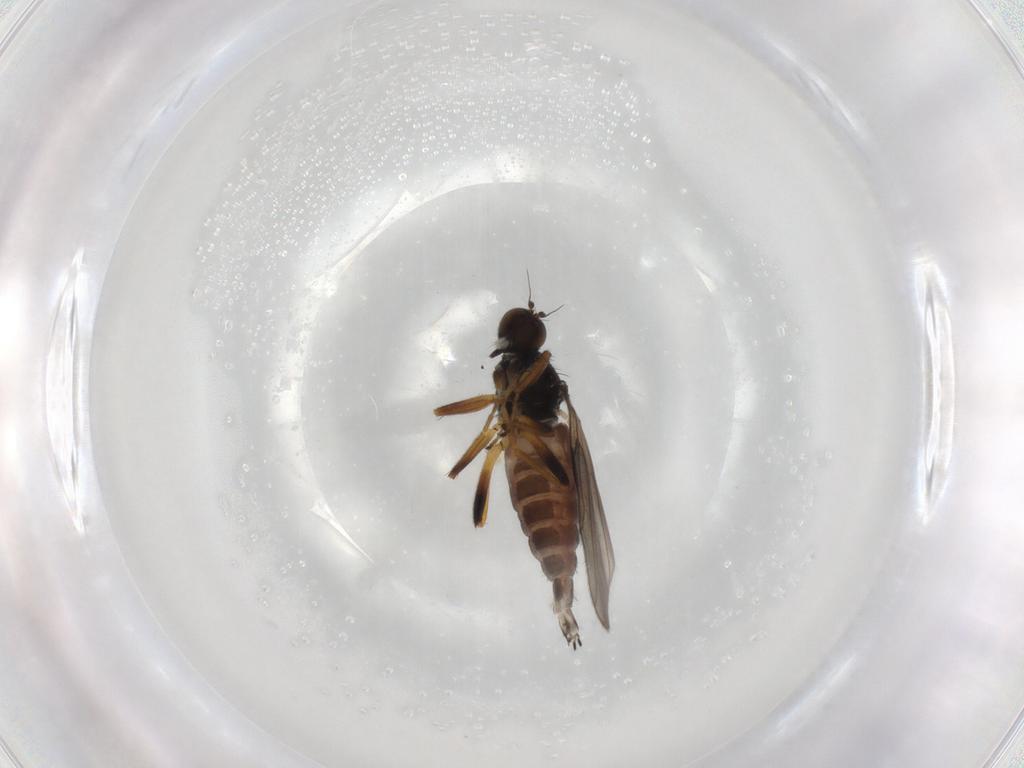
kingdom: Animalia
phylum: Arthropoda
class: Insecta
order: Diptera
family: Hybotidae
